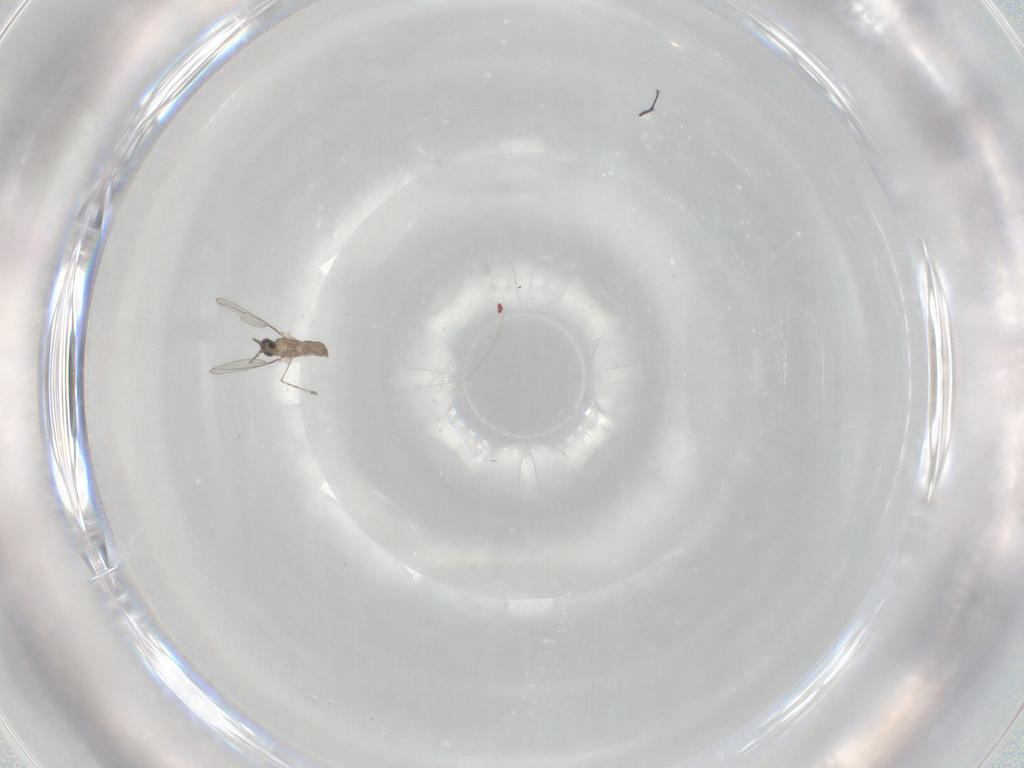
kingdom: Animalia
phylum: Arthropoda
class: Insecta
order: Diptera
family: Cecidomyiidae
